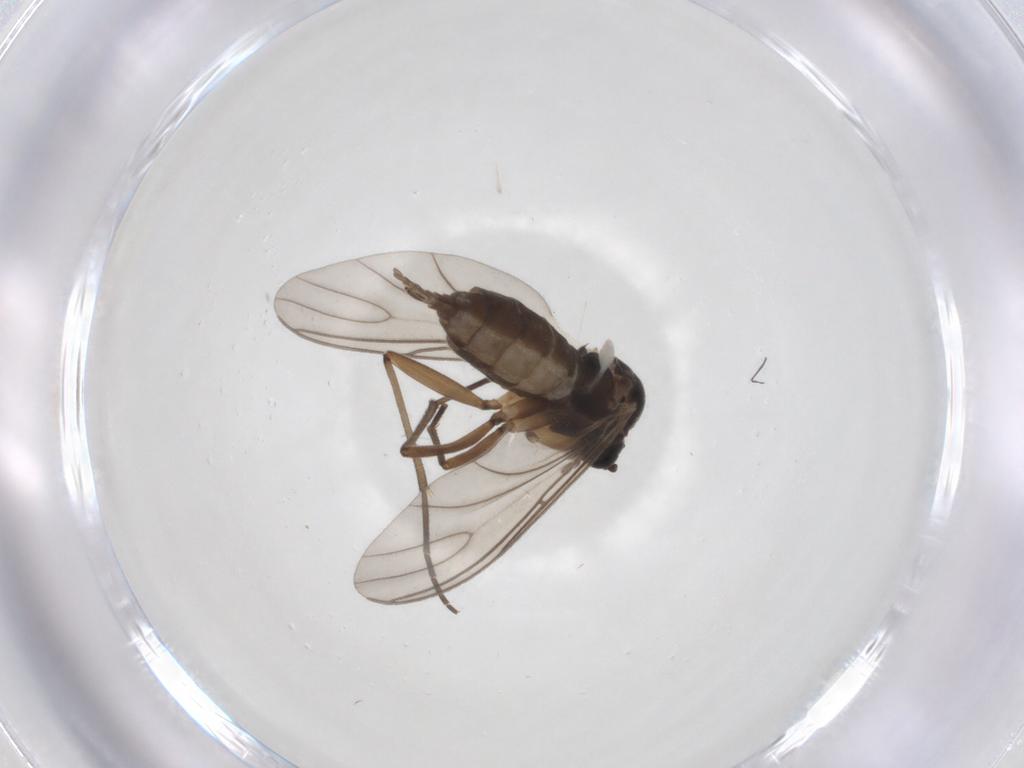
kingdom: Animalia
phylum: Arthropoda
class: Insecta
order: Diptera
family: Sciaridae
